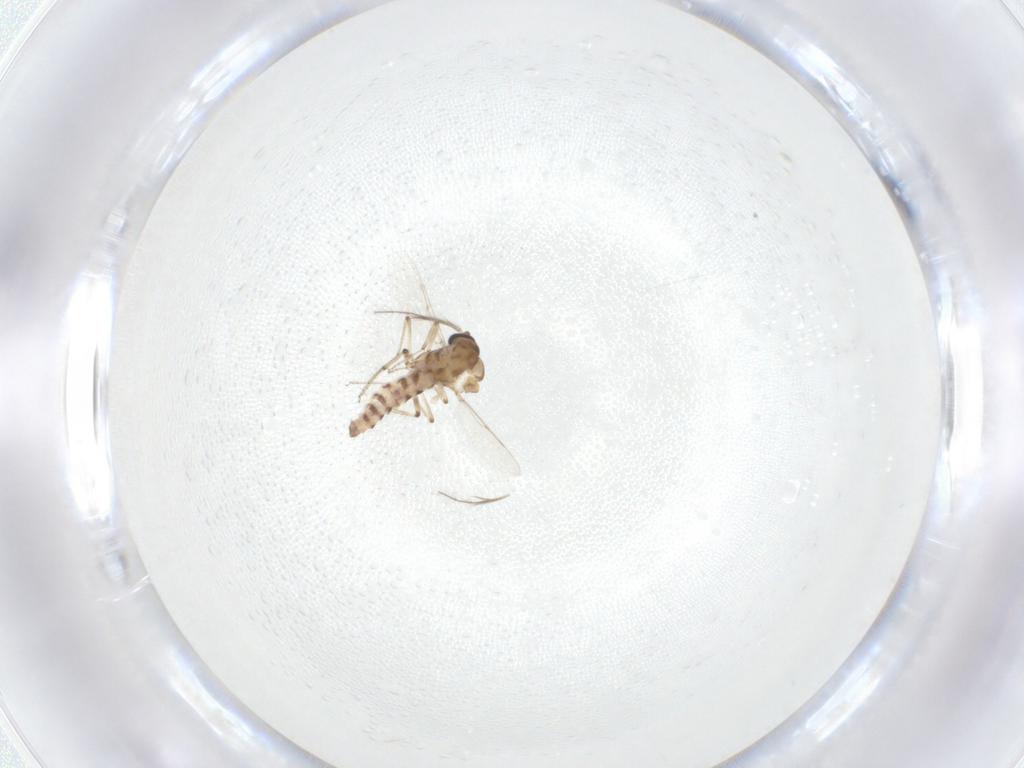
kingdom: Animalia
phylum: Arthropoda
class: Insecta
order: Diptera
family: Ceratopogonidae
